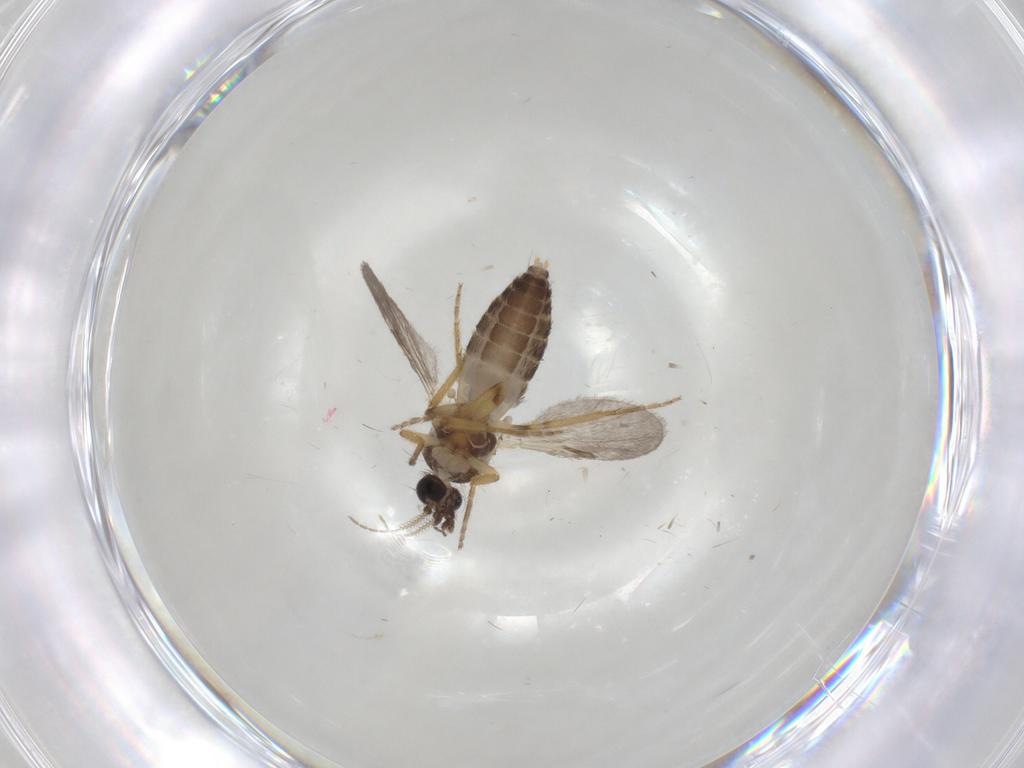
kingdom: Animalia
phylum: Arthropoda
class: Insecta
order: Diptera
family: Ceratopogonidae
